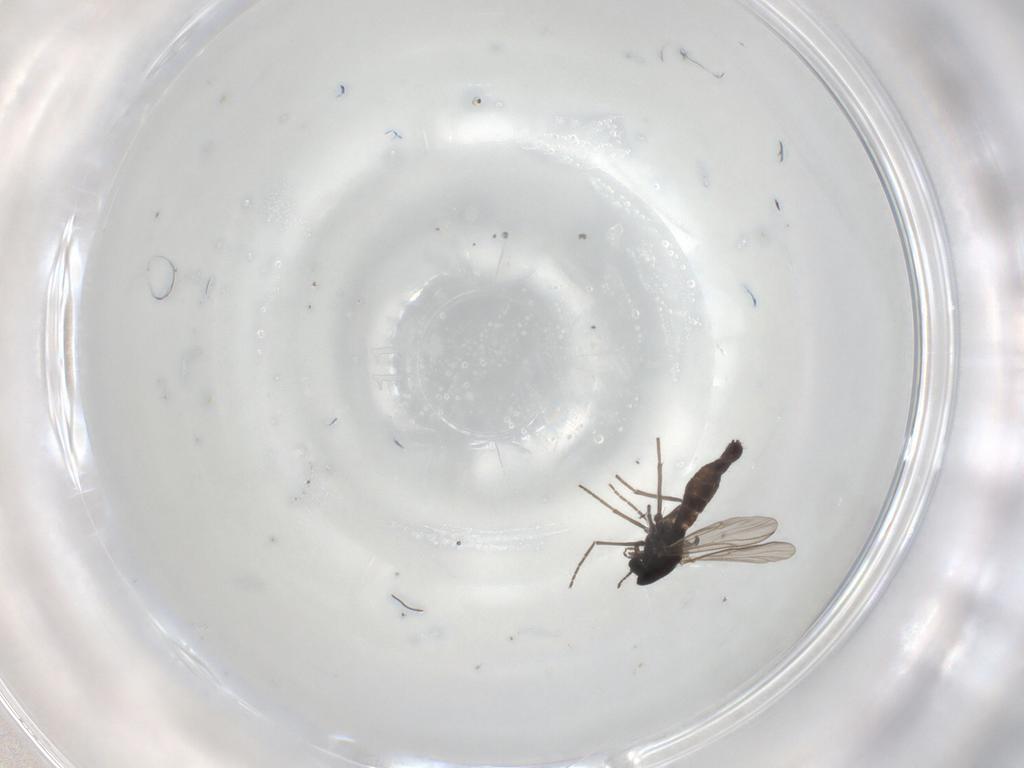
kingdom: Animalia
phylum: Arthropoda
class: Insecta
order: Diptera
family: Chironomidae
